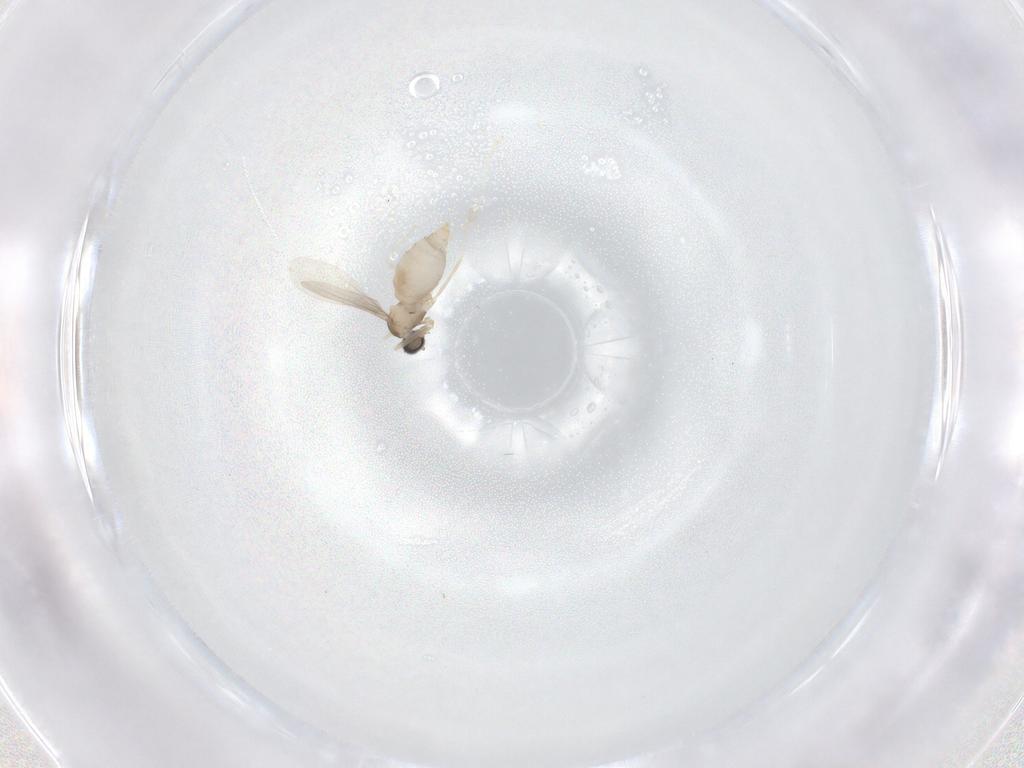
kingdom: Animalia
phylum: Arthropoda
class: Insecta
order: Diptera
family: Cecidomyiidae
